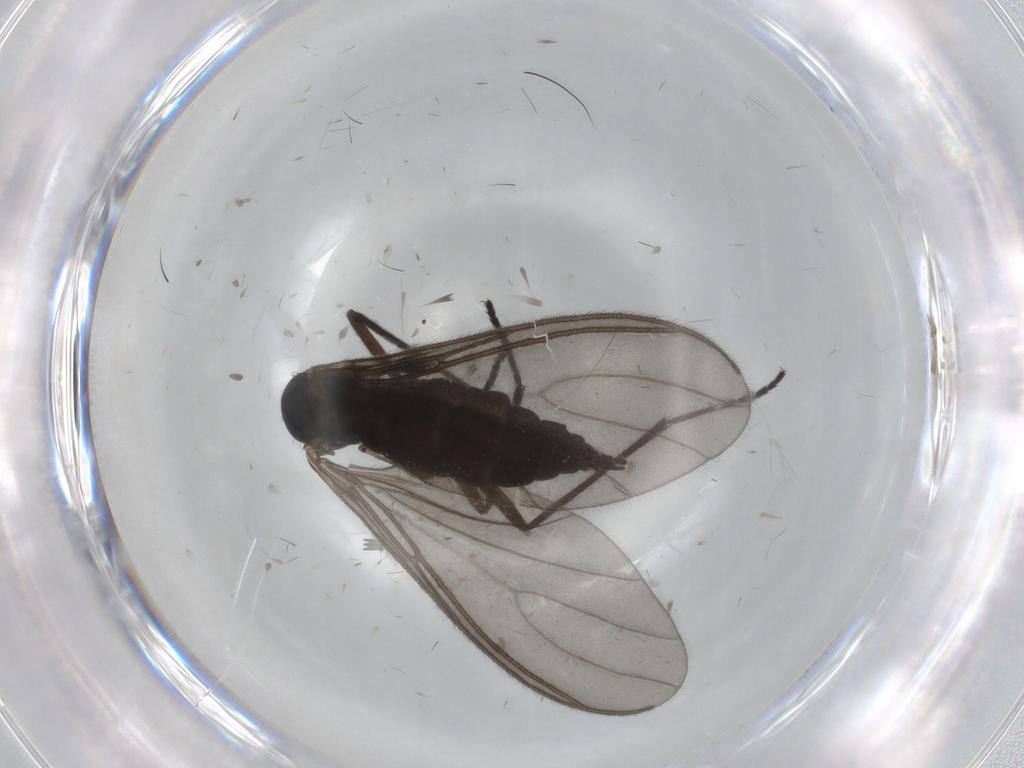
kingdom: Animalia
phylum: Arthropoda
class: Insecta
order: Diptera
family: Sciaridae
